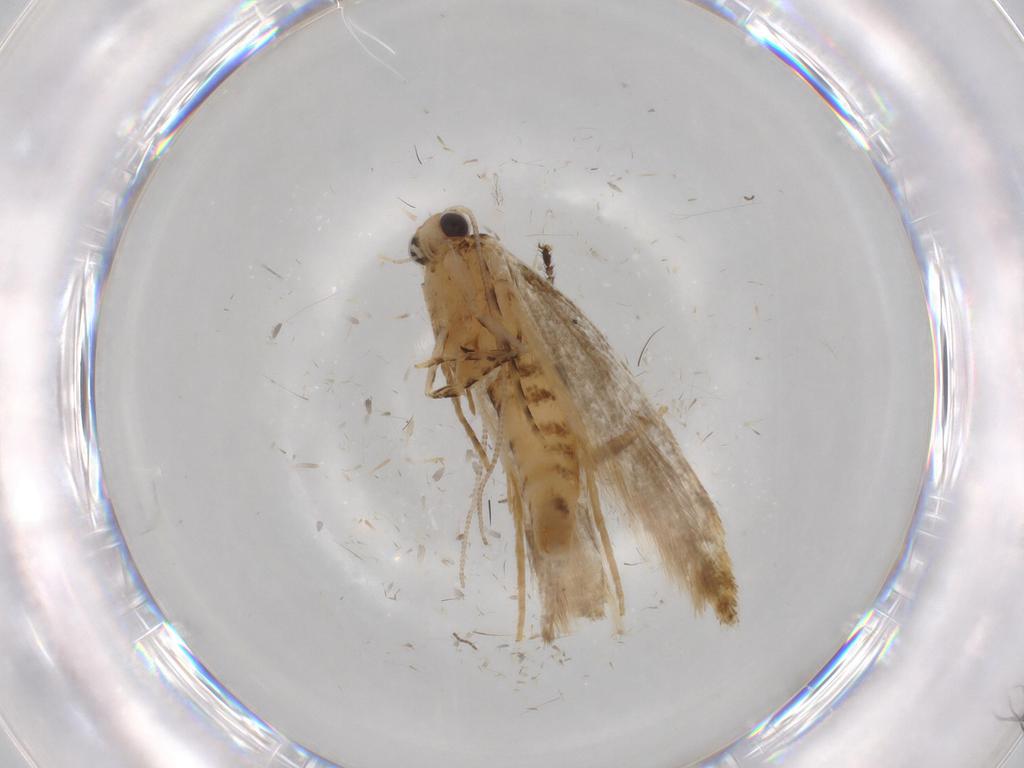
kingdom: Animalia
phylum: Arthropoda
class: Insecta
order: Lepidoptera
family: Tineidae
